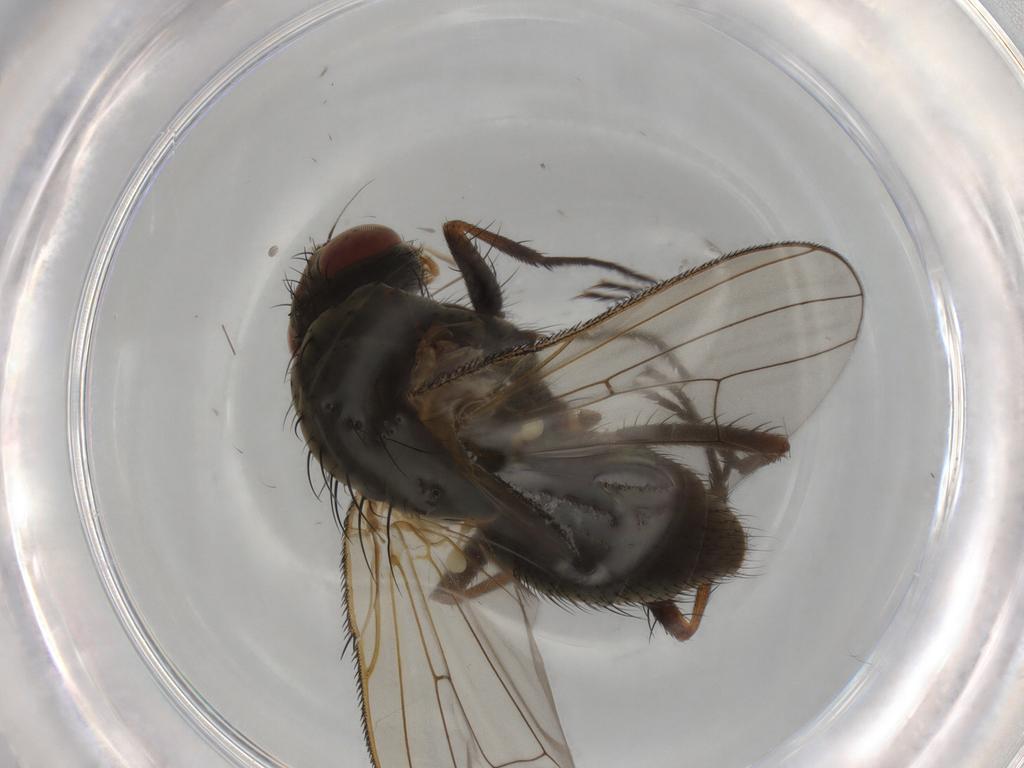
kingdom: Animalia
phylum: Arthropoda
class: Insecta
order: Diptera
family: Anthomyiidae
